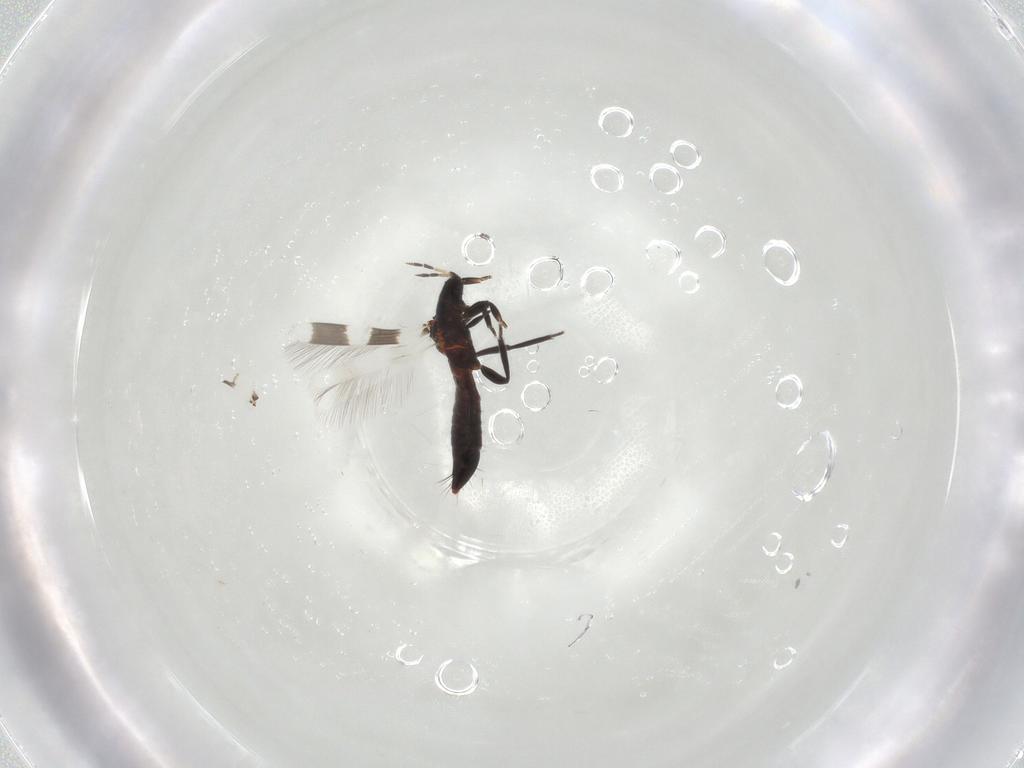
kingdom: Animalia
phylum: Arthropoda
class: Insecta
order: Thysanoptera
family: Aeolothripidae
